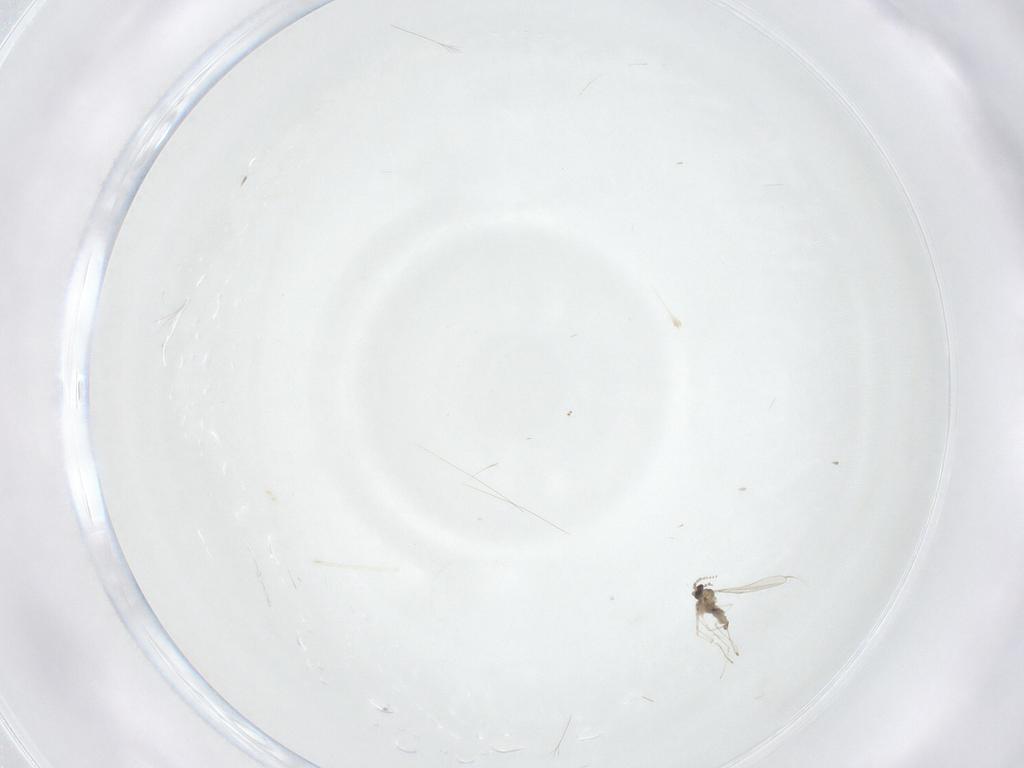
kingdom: Animalia
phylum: Arthropoda
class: Insecta
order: Diptera
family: Cecidomyiidae
